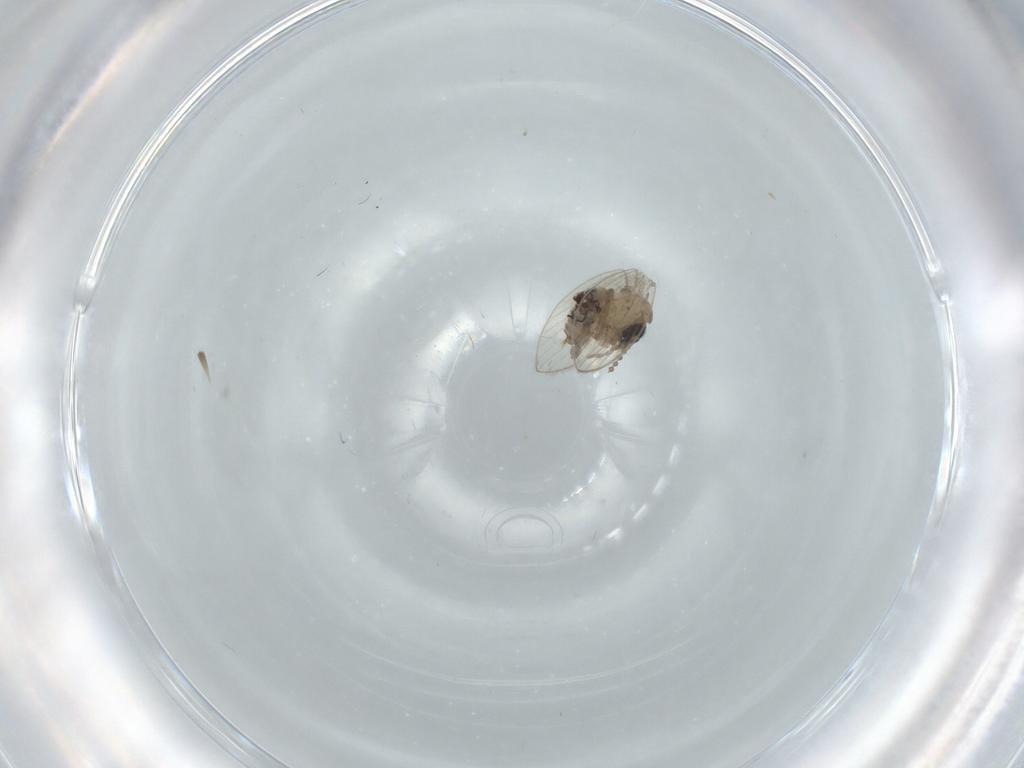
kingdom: Animalia
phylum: Arthropoda
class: Insecta
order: Diptera
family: Psychodidae
